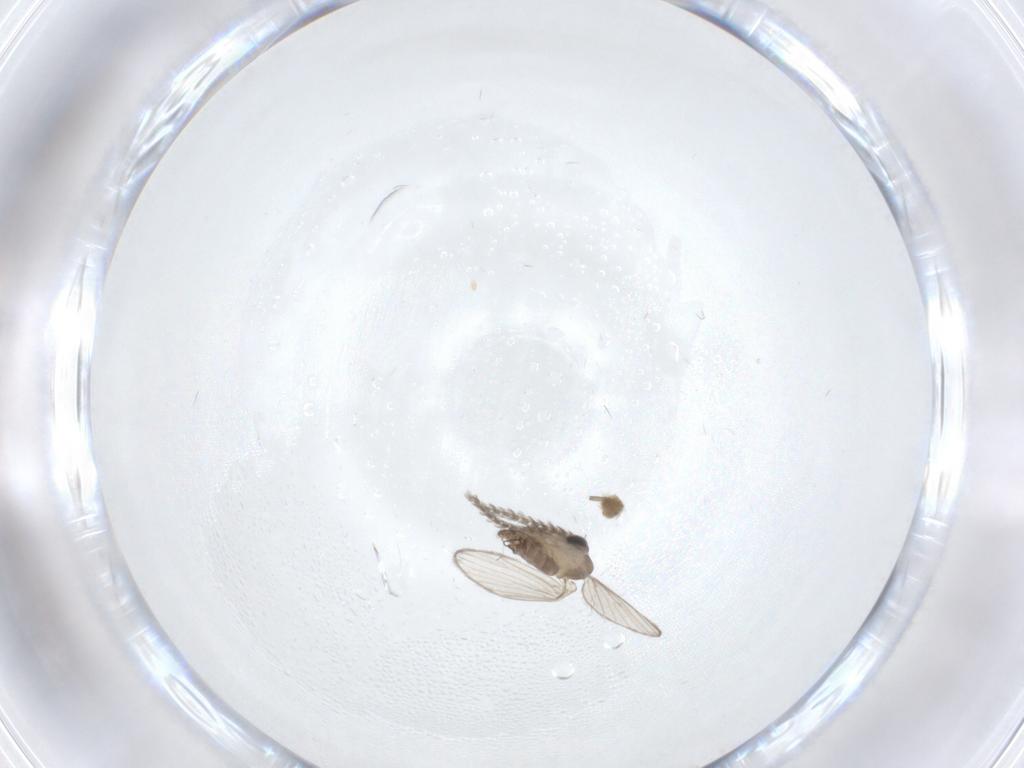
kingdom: Animalia
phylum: Arthropoda
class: Insecta
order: Diptera
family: Psychodidae
